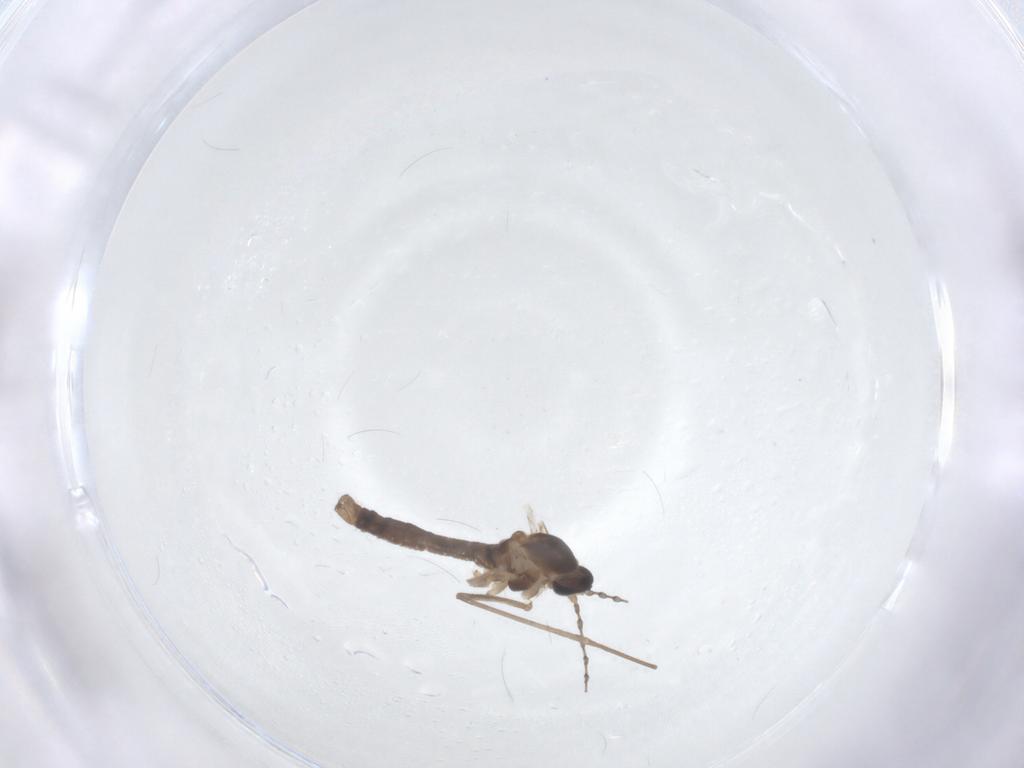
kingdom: Animalia
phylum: Arthropoda
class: Insecta
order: Diptera
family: Cecidomyiidae
